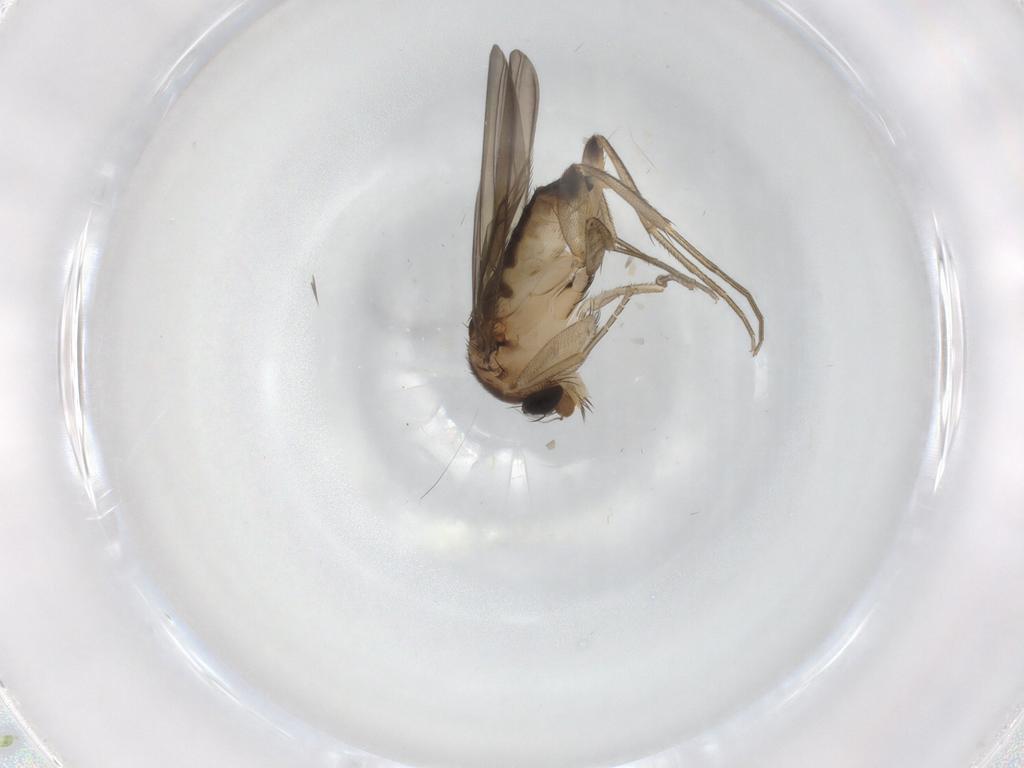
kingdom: Animalia
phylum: Arthropoda
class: Insecta
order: Diptera
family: Phoridae
